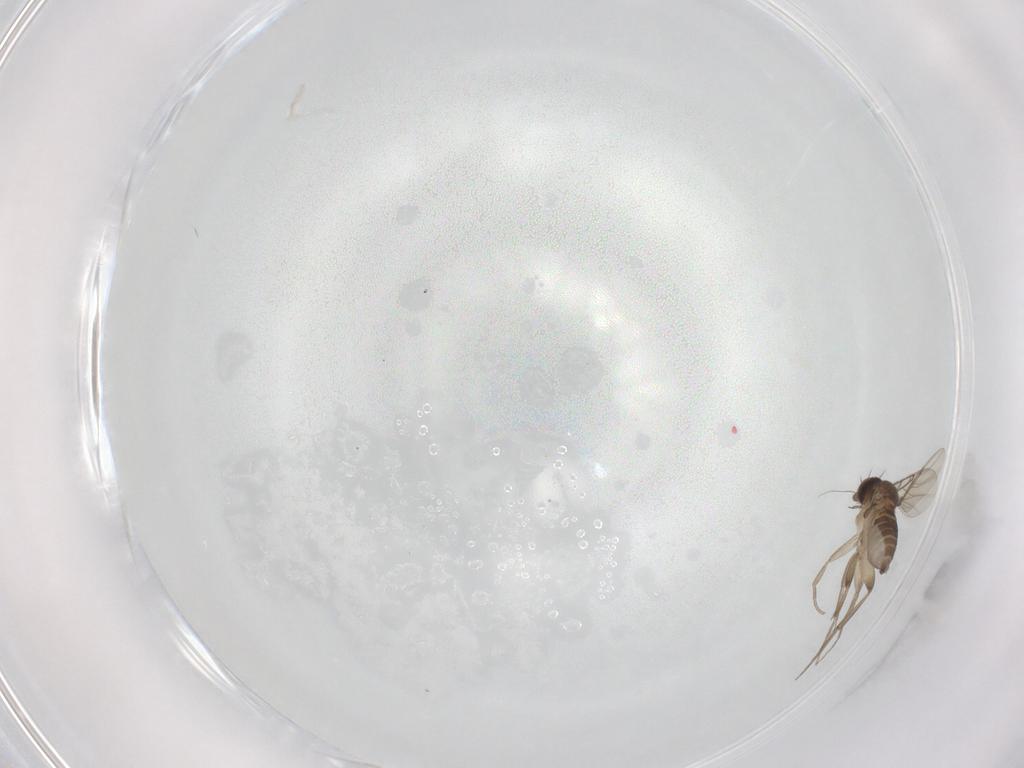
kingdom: Animalia
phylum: Arthropoda
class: Insecta
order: Diptera
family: Phoridae
